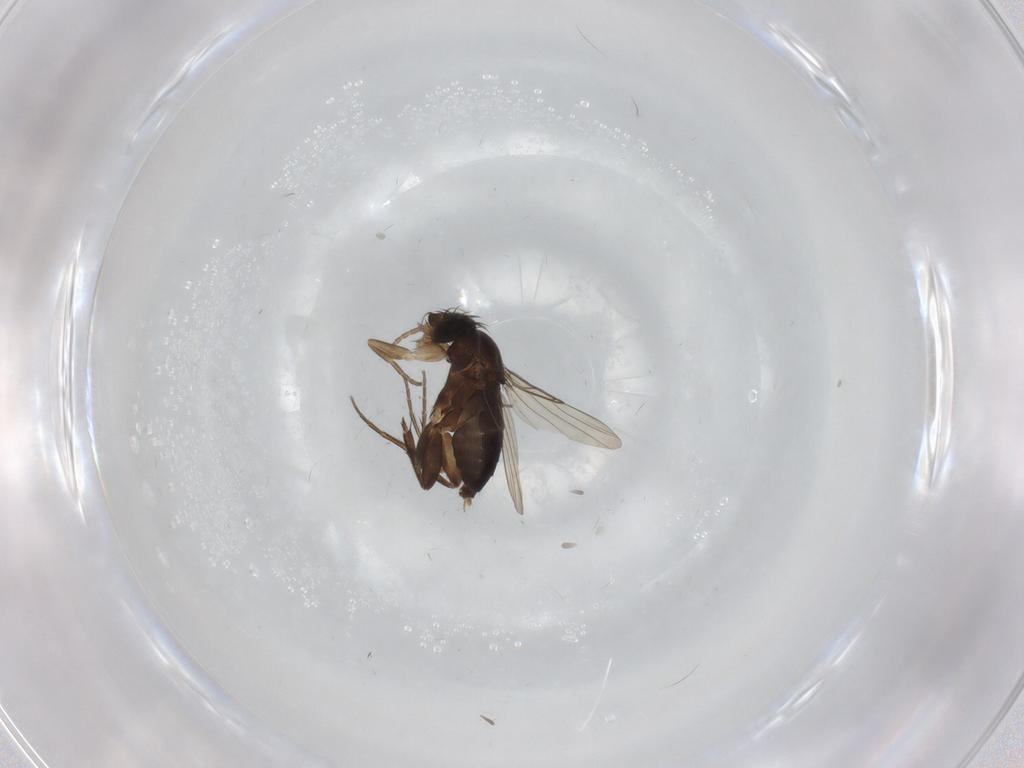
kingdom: Animalia
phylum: Arthropoda
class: Insecta
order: Diptera
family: Phoridae
